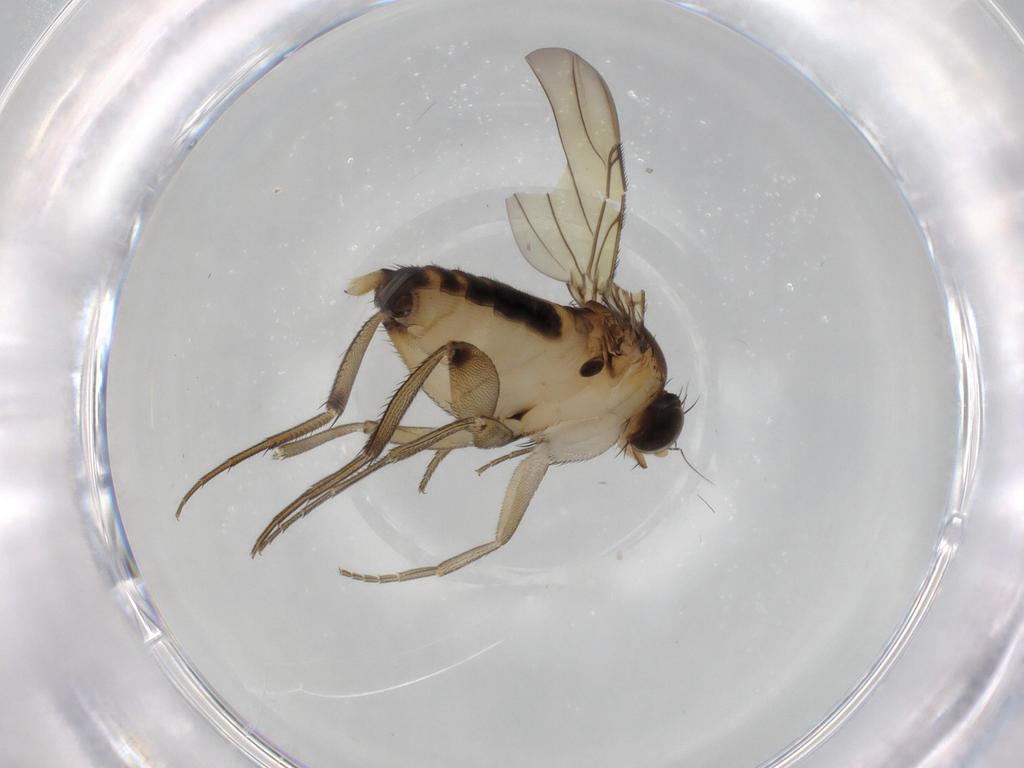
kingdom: Animalia
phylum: Arthropoda
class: Insecta
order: Diptera
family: Phoridae
